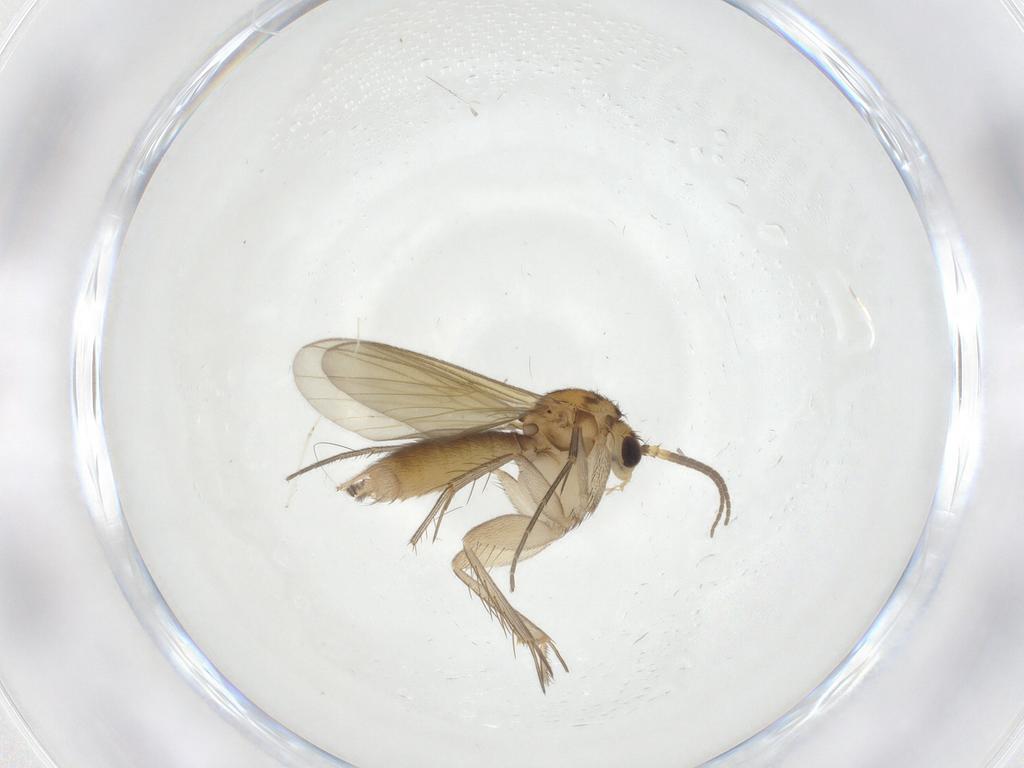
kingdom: Animalia
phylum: Arthropoda
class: Insecta
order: Diptera
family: Mycetophilidae
